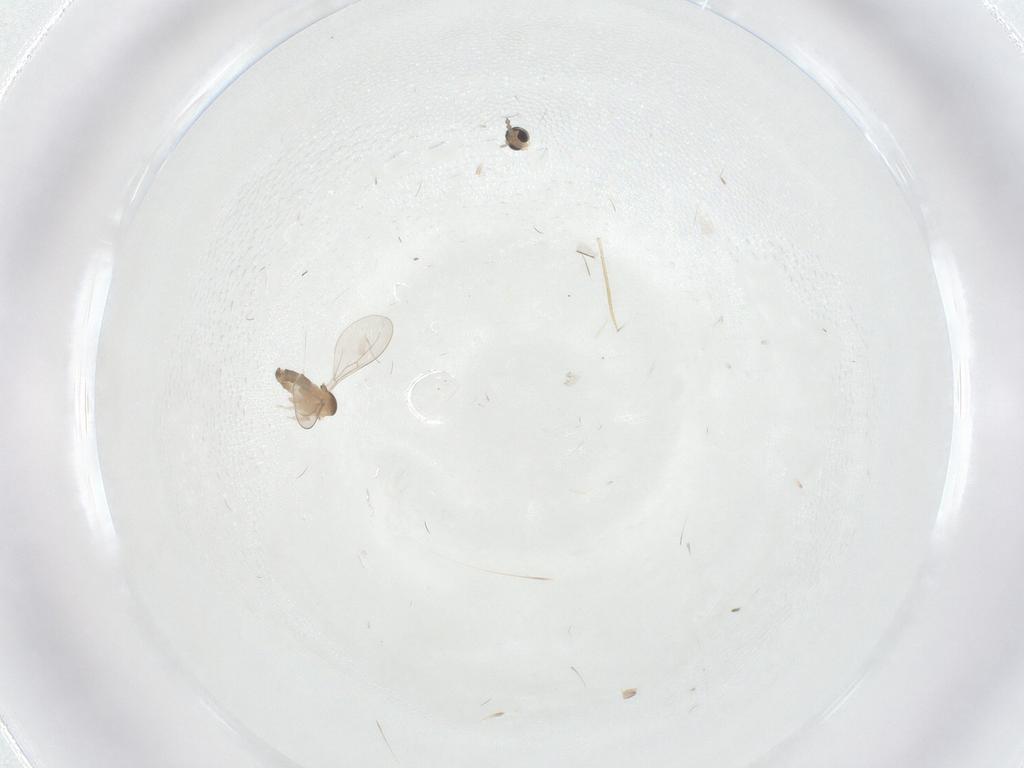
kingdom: Animalia
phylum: Arthropoda
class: Insecta
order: Diptera
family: Cecidomyiidae
